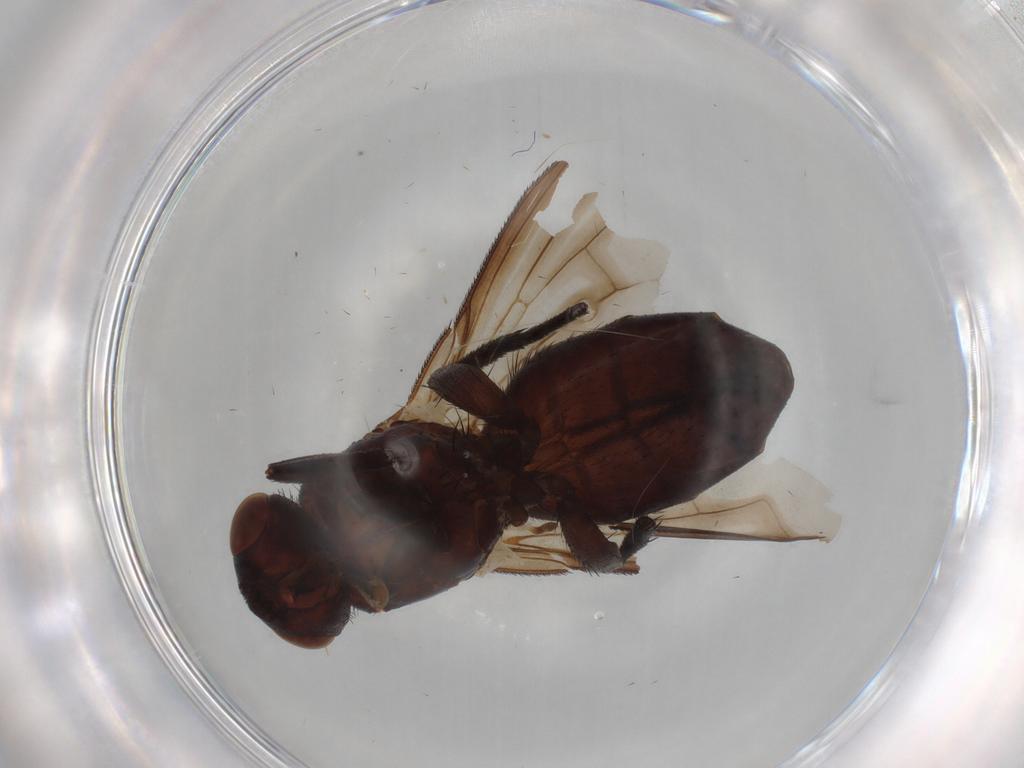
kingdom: Animalia
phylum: Arthropoda
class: Insecta
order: Diptera
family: Tachinidae
